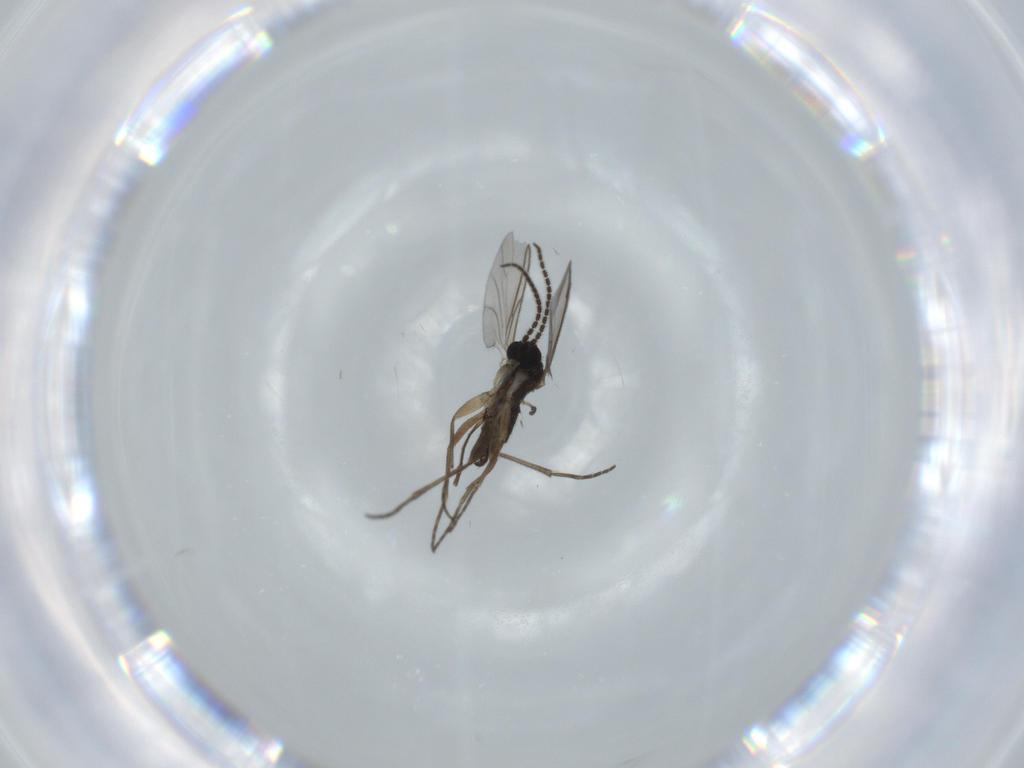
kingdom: Animalia
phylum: Arthropoda
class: Insecta
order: Diptera
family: Sciaridae
